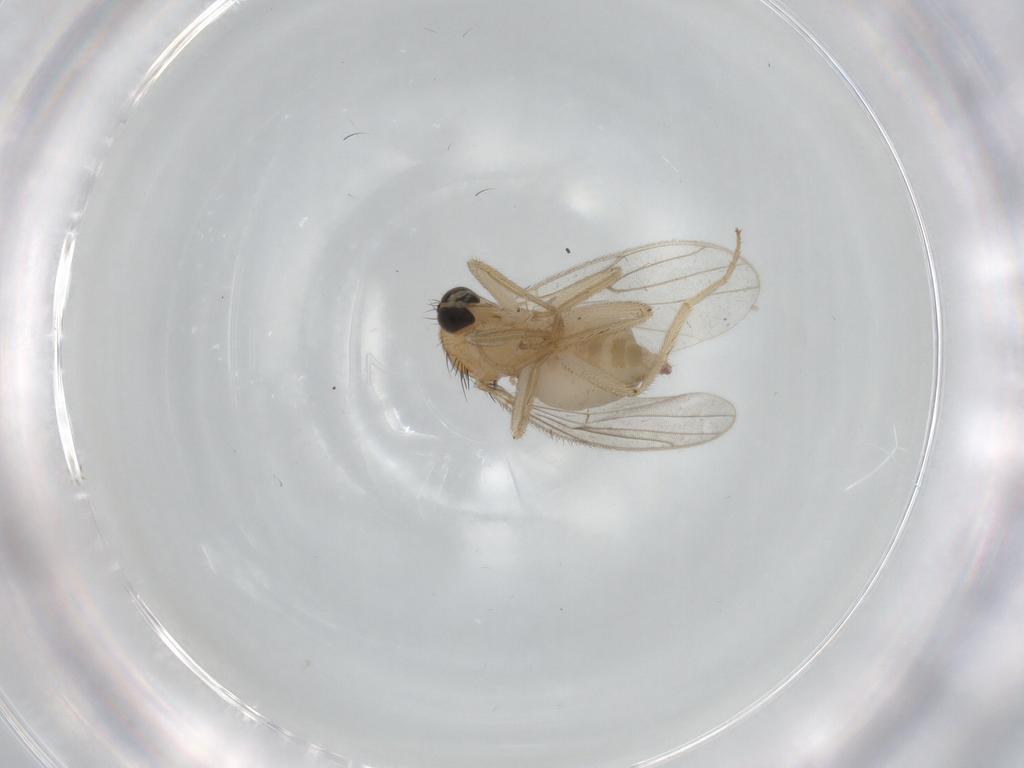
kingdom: Animalia
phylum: Arthropoda
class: Insecta
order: Diptera
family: Hybotidae
